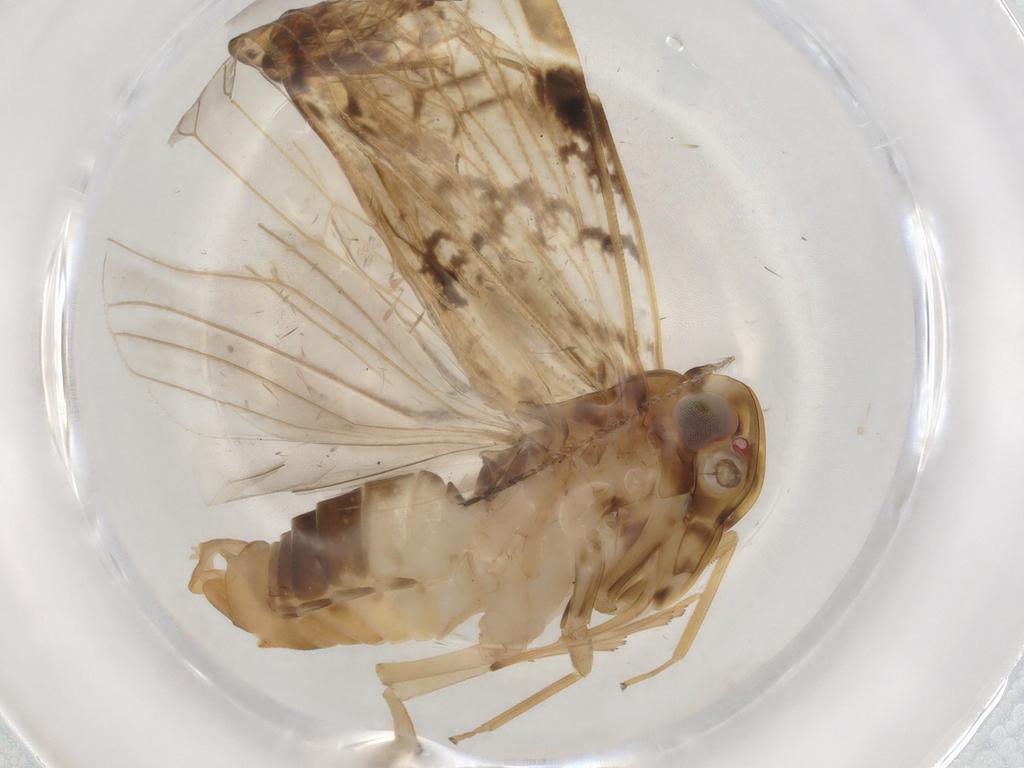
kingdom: Animalia
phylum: Arthropoda
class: Insecta
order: Hemiptera
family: Cixiidae
